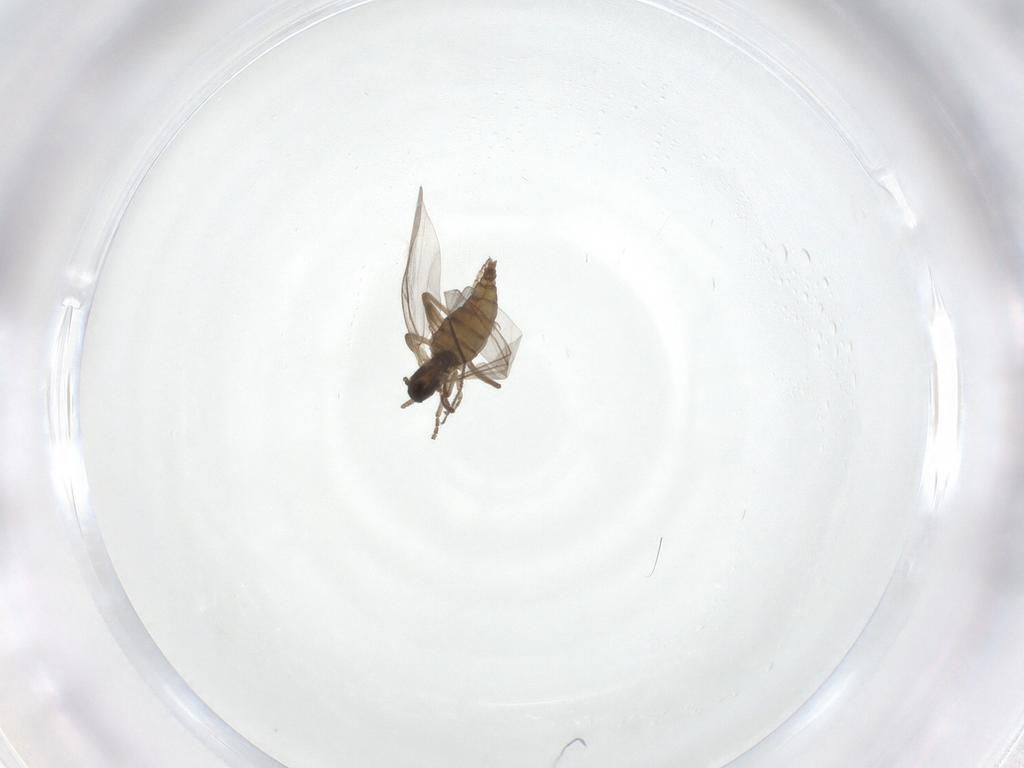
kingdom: Animalia
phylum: Arthropoda
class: Insecta
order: Diptera
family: Cecidomyiidae
